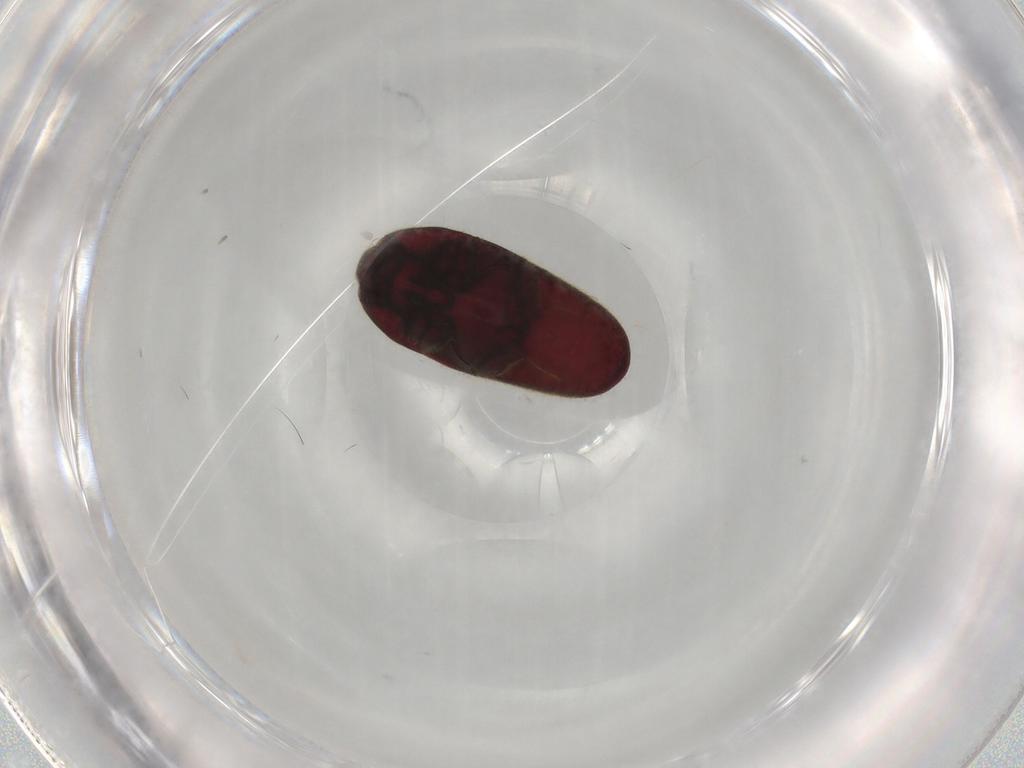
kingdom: Animalia
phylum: Arthropoda
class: Insecta
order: Coleoptera
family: Throscidae
